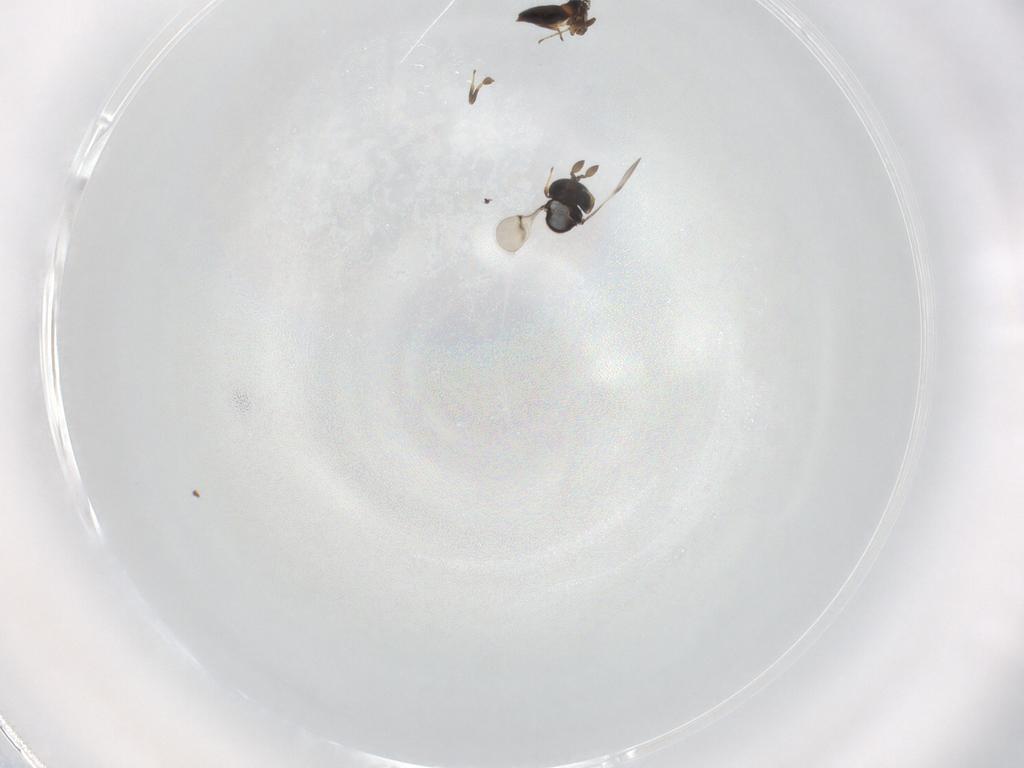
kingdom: Animalia
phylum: Arthropoda
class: Insecta
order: Hymenoptera
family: Scelionidae
